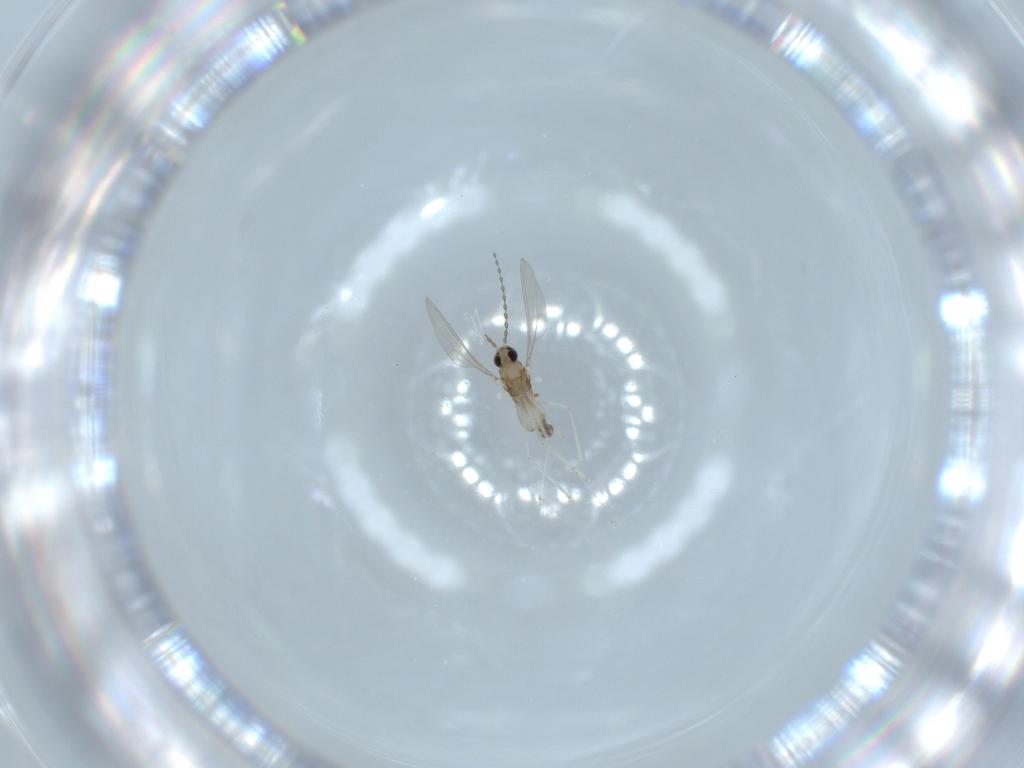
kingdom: Animalia
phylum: Arthropoda
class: Insecta
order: Diptera
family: Cecidomyiidae
